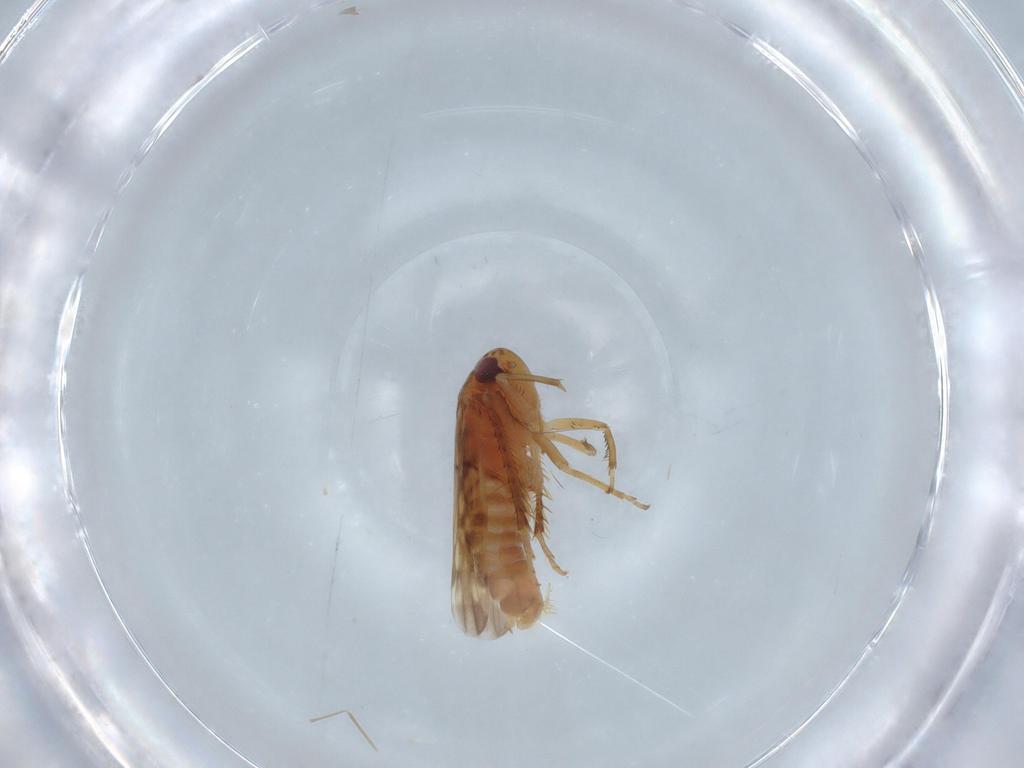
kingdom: Animalia
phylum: Arthropoda
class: Insecta
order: Hemiptera
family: Cicadellidae
